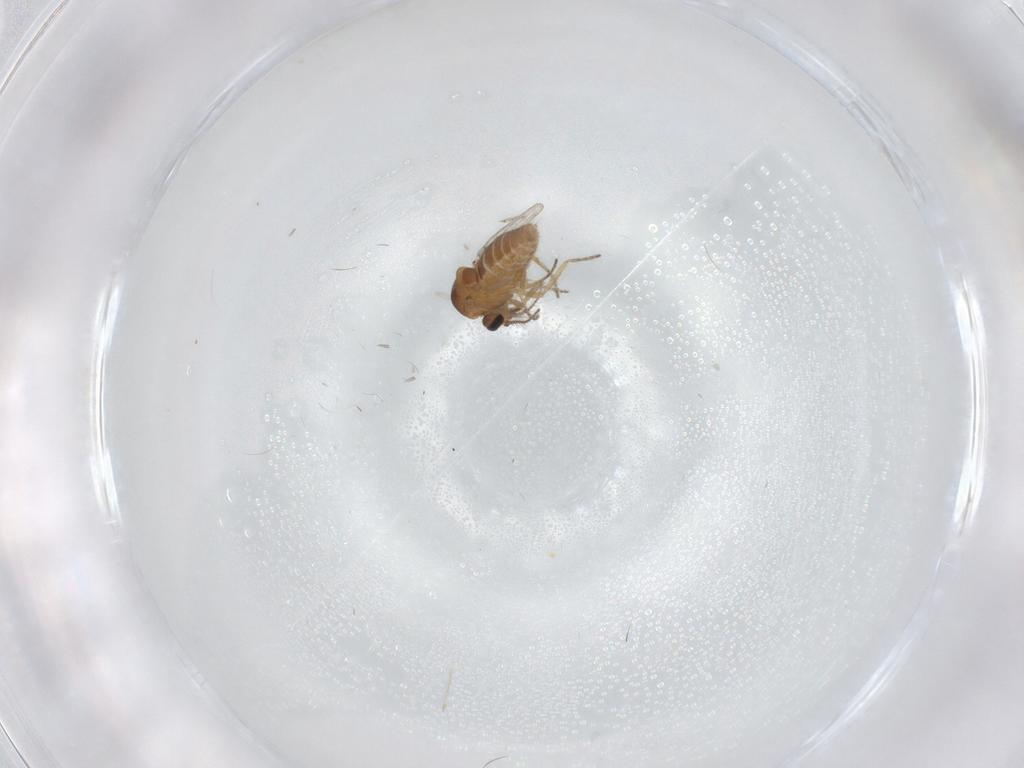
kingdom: Animalia
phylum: Arthropoda
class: Insecta
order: Diptera
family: Ceratopogonidae
